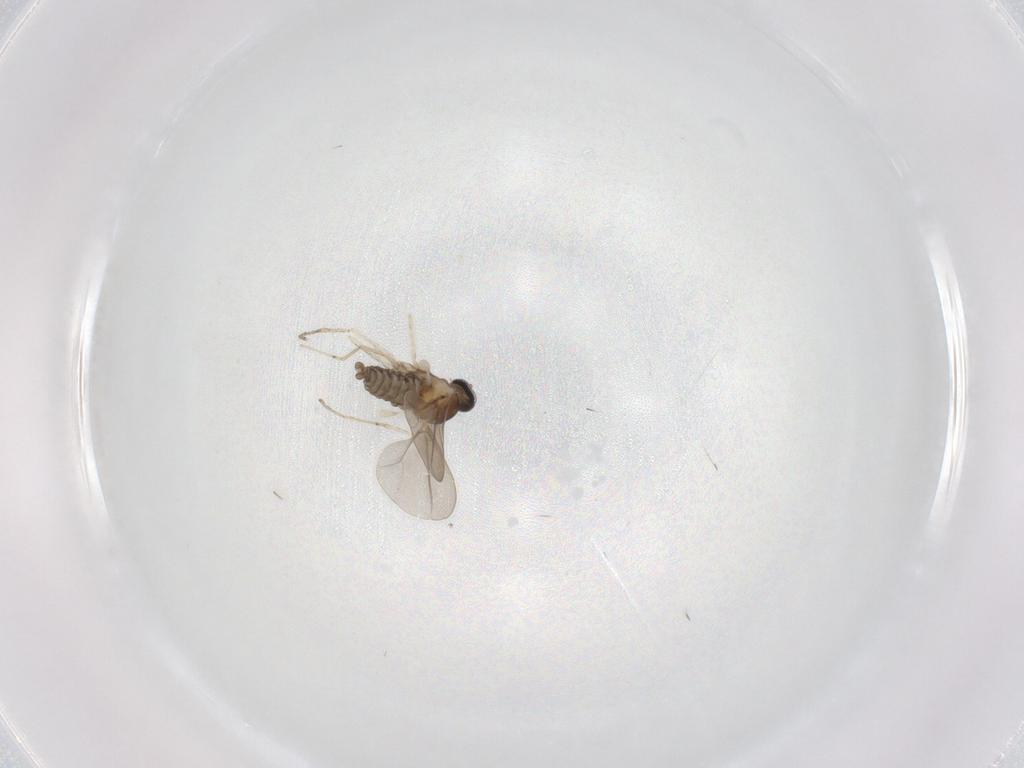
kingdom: Animalia
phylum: Arthropoda
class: Insecta
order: Diptera
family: Cecidomyiidae
